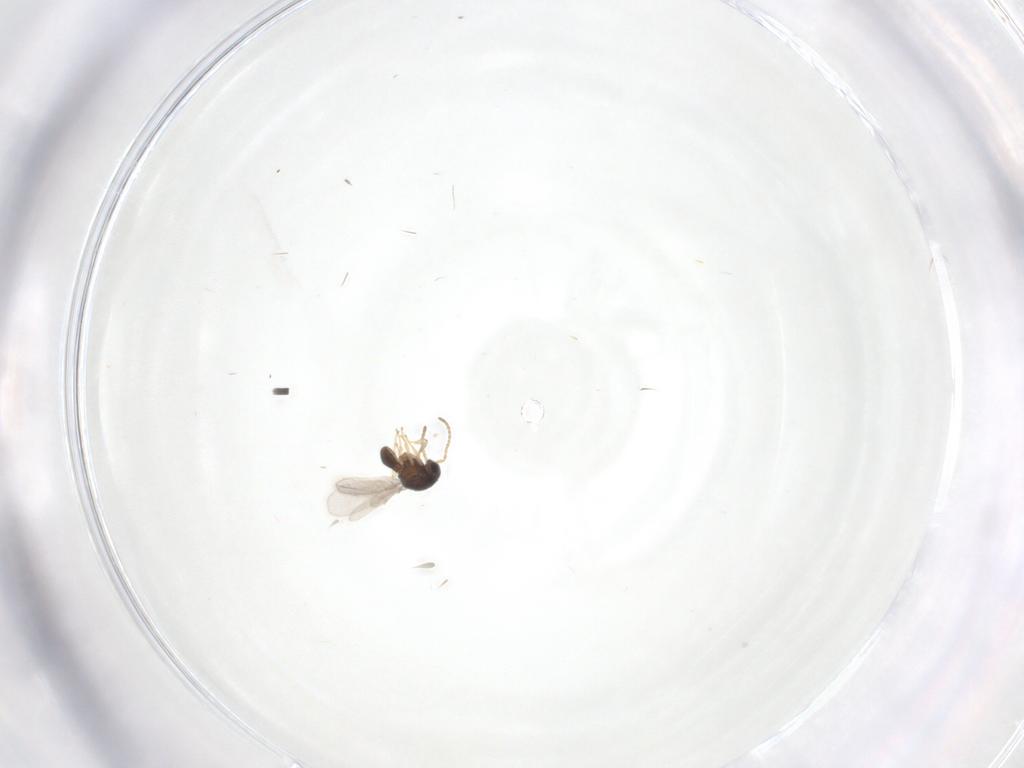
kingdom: Animalia
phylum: Arthropoda
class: Insecta
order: Hymenoptera
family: Scelionidae
